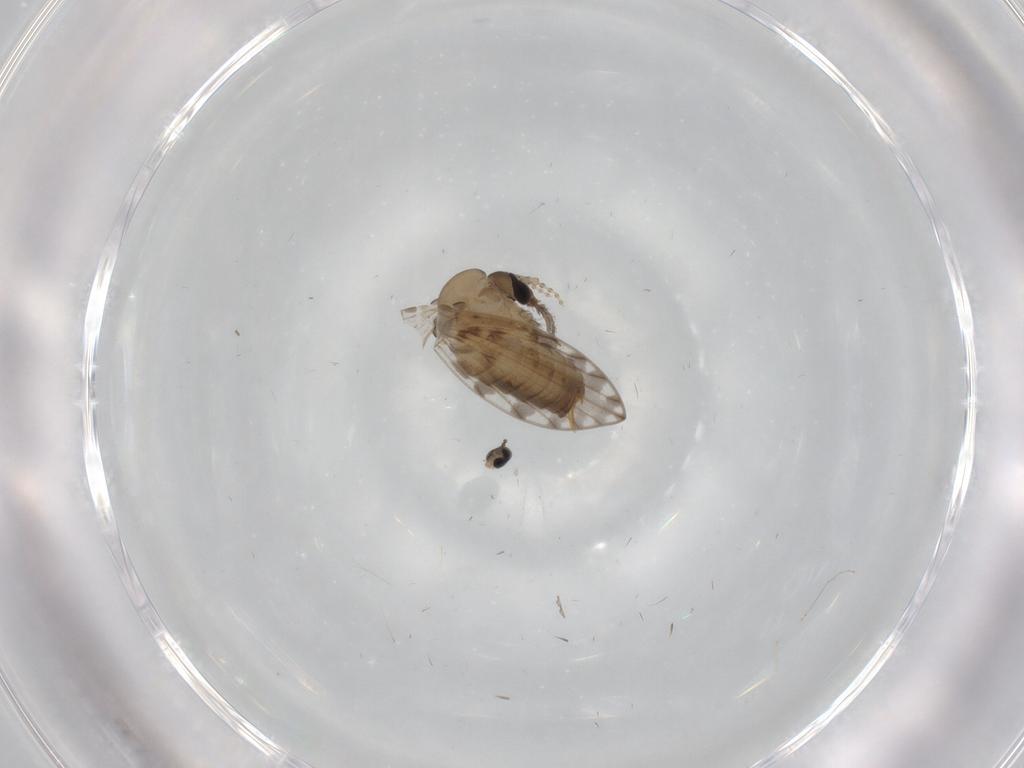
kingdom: Animalia
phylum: Arthropoda
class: Insecta
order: Diptera
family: Psychodidae
